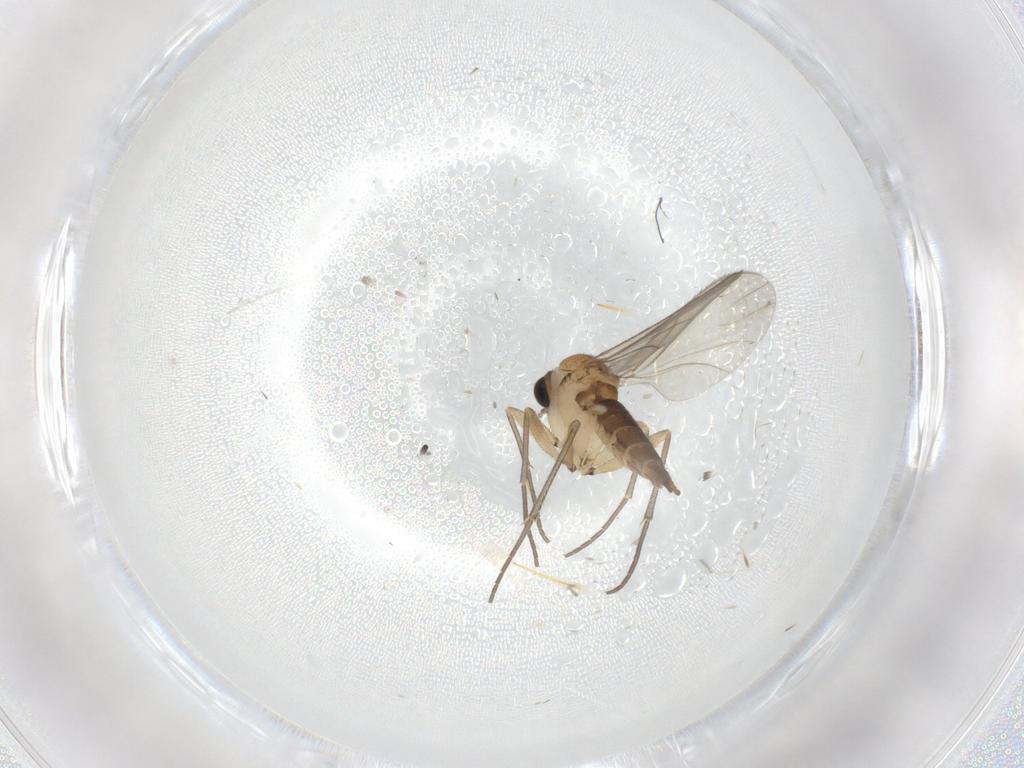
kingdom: Animalia
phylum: Arthropoda
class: Insecta
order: Diptera
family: Sciaridae
